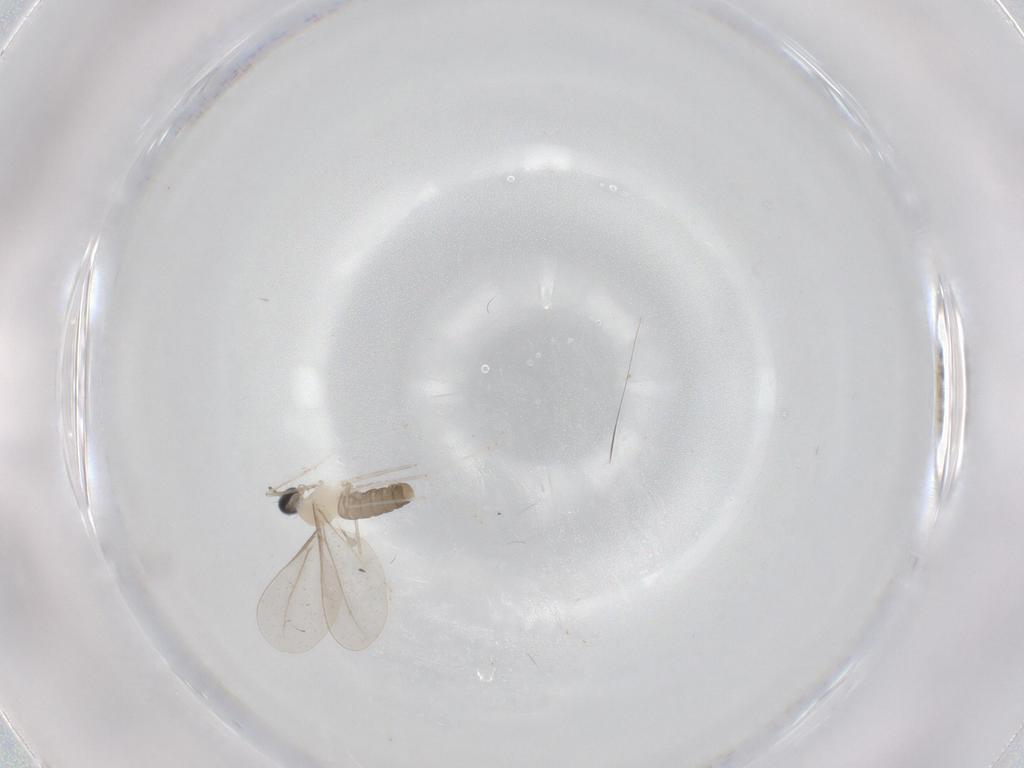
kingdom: Animalia
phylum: Arthropoda
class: Insecta
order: Diptera
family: Cecidomyiidae
